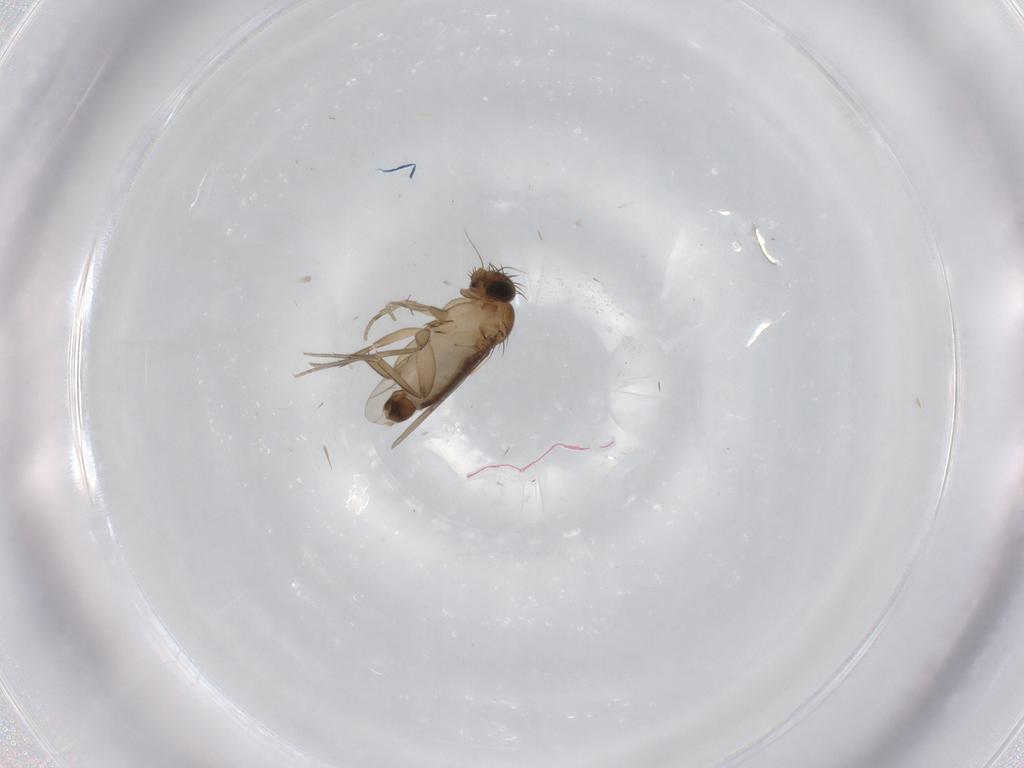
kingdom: Animalia
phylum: Arthropoda
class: Insecta
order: Diptera
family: Phoridae
